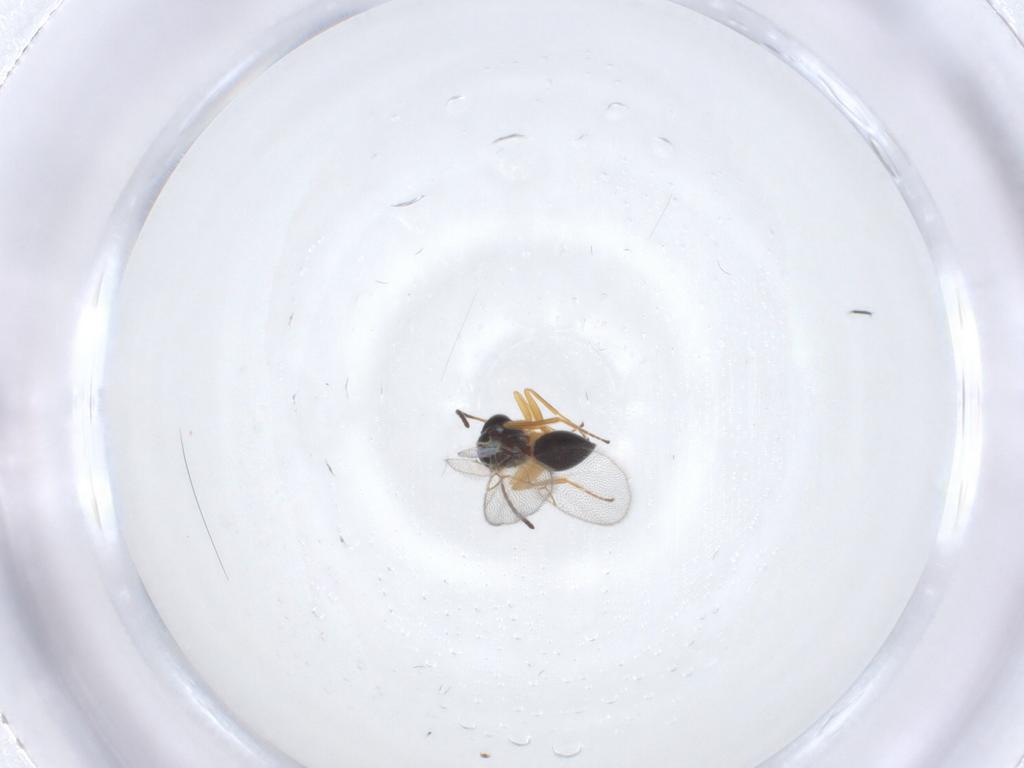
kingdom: Animalia
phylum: Arthropoda
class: Insecta
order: Hymenoptera
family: Figitidae
